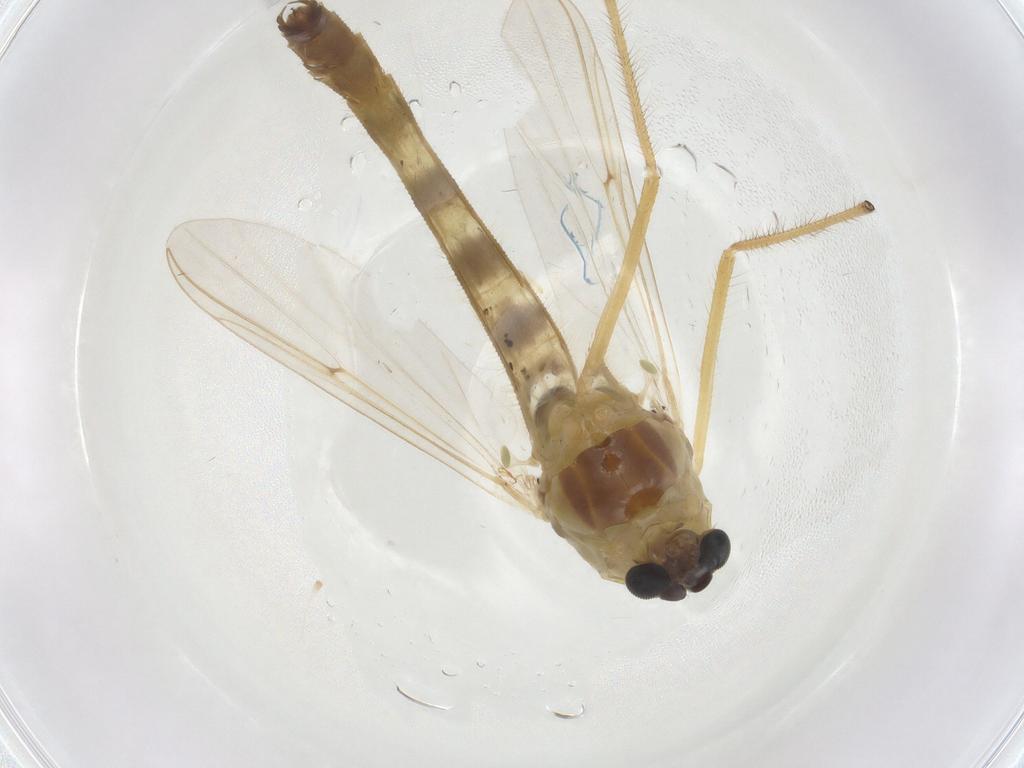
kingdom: Animalia
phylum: Arthropoda
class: Insecta
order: Diptera
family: Chironomidae
